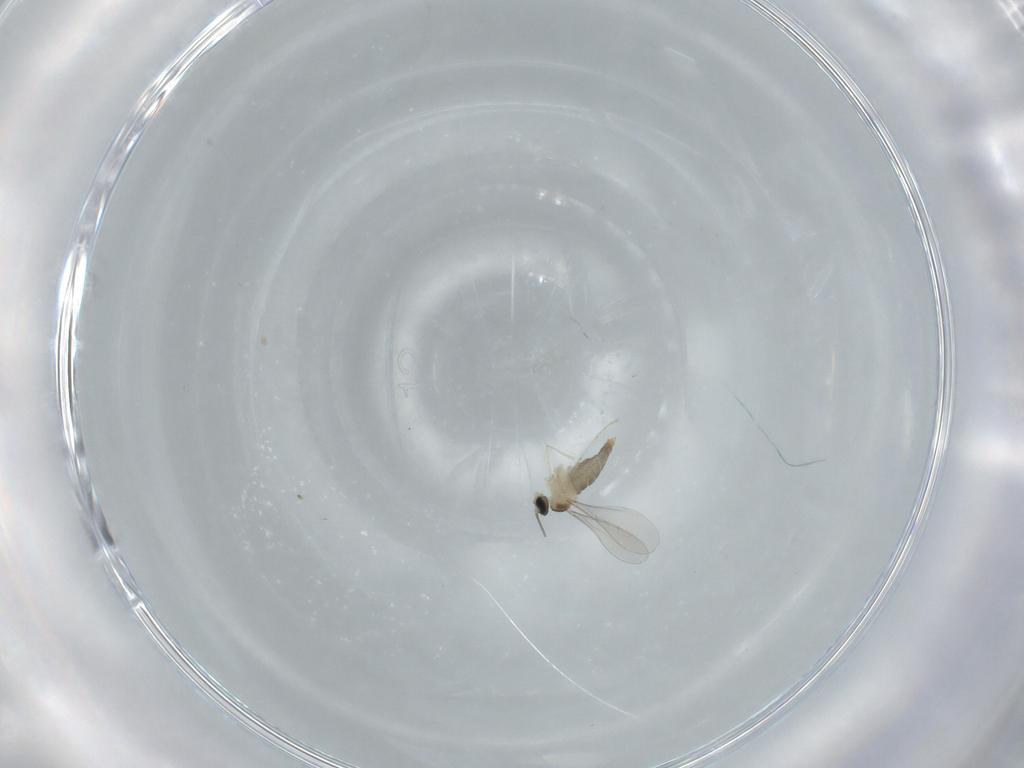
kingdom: Animalia
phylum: Arthropoda
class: Insecta
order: Diptera
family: Cecidomyiidae
